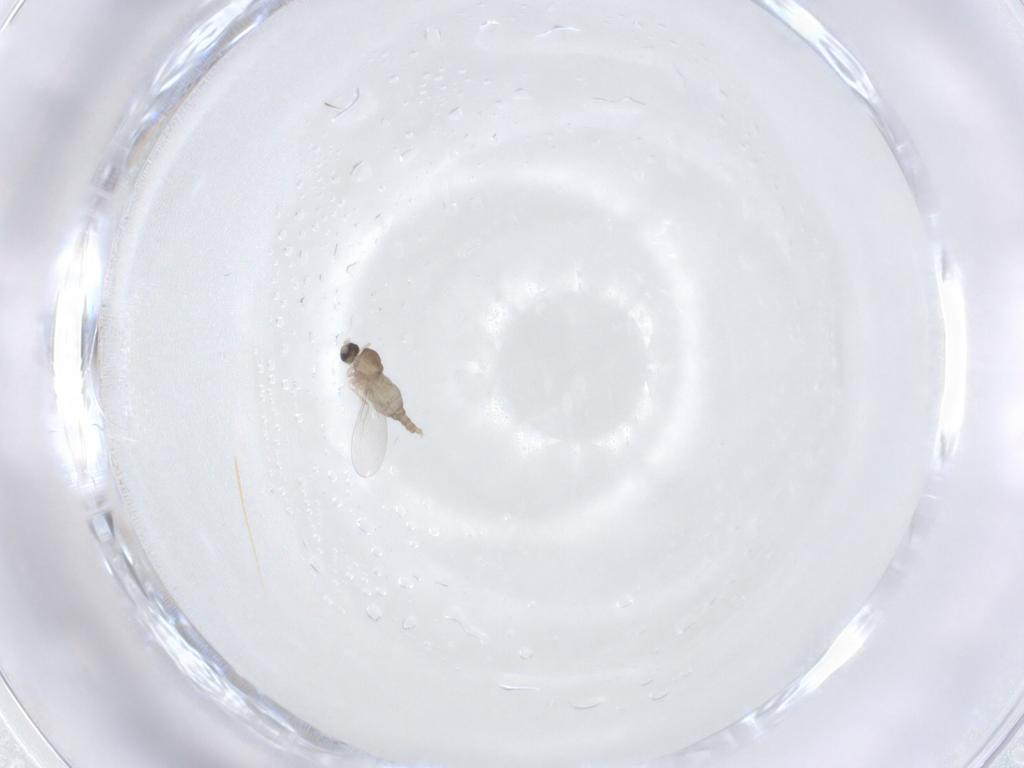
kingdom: Animalia
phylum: Arthropoda
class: Insecta
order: Diptera
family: Cecidomyiidae
